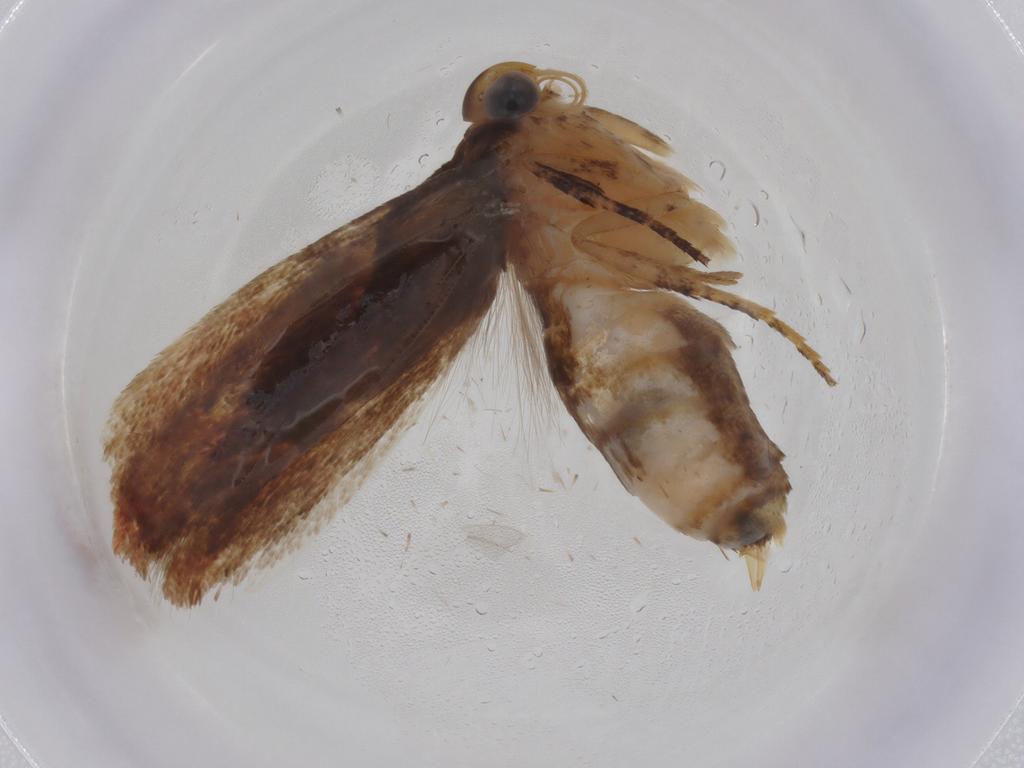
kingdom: Animalia
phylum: Arthropoda
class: Insecta
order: Lepidoptera
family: Gelechiidae
